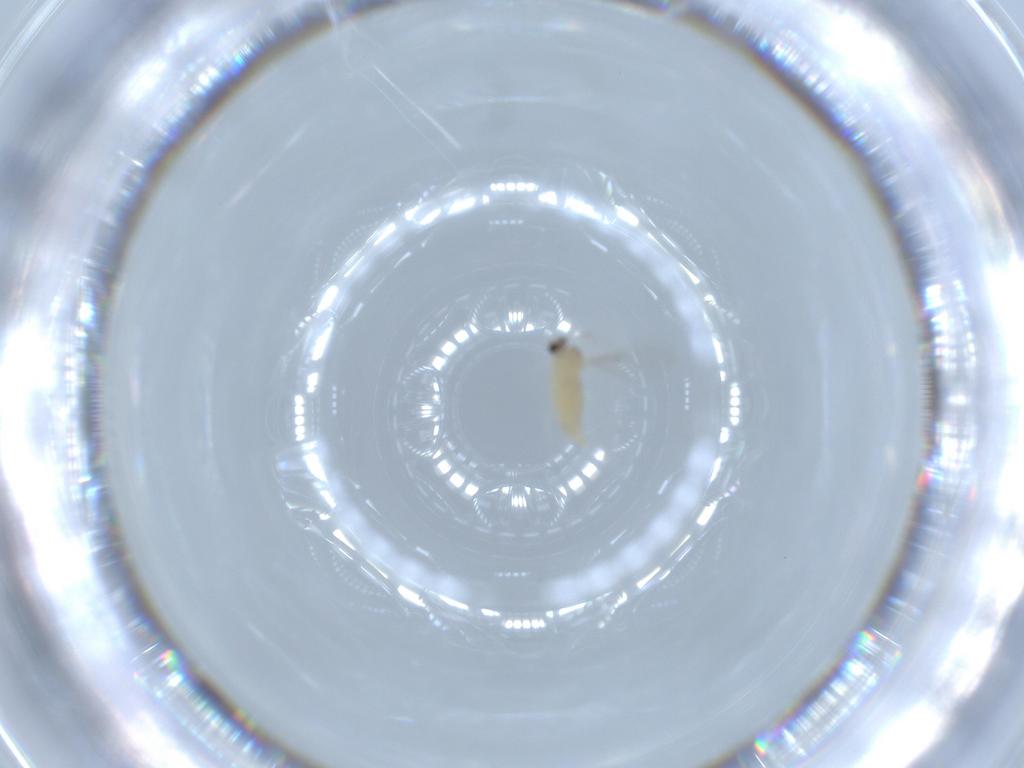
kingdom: Animalia
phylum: Arthropoda
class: Insecta
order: Diptera
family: Cecidomyiidae
